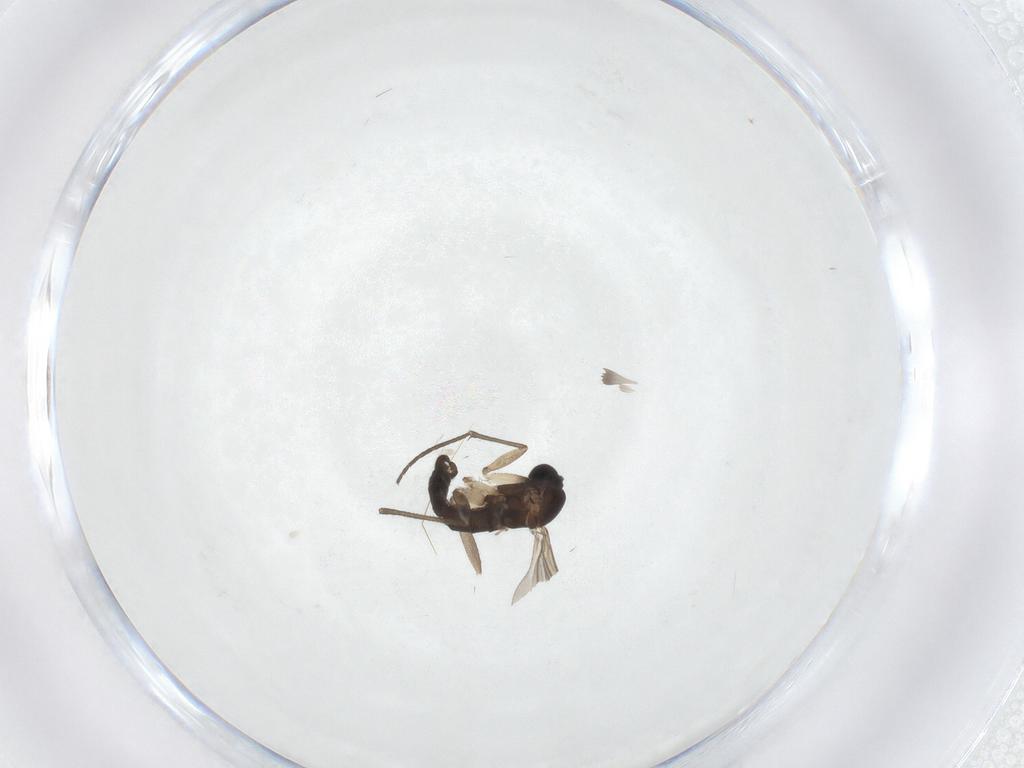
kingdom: Animalia
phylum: Arthropoda
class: Insecta
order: Diptera
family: Sciaridae
